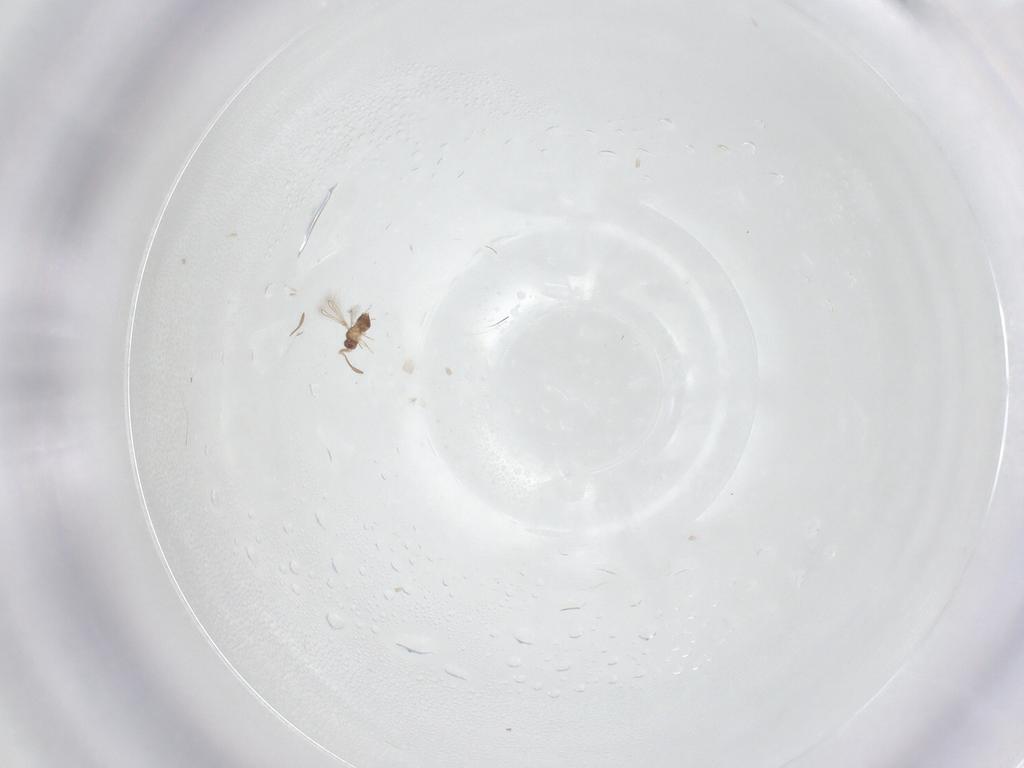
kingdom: Animalia
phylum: Arthropoda
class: Insecta
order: Hymenoptera
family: Mymaridae
